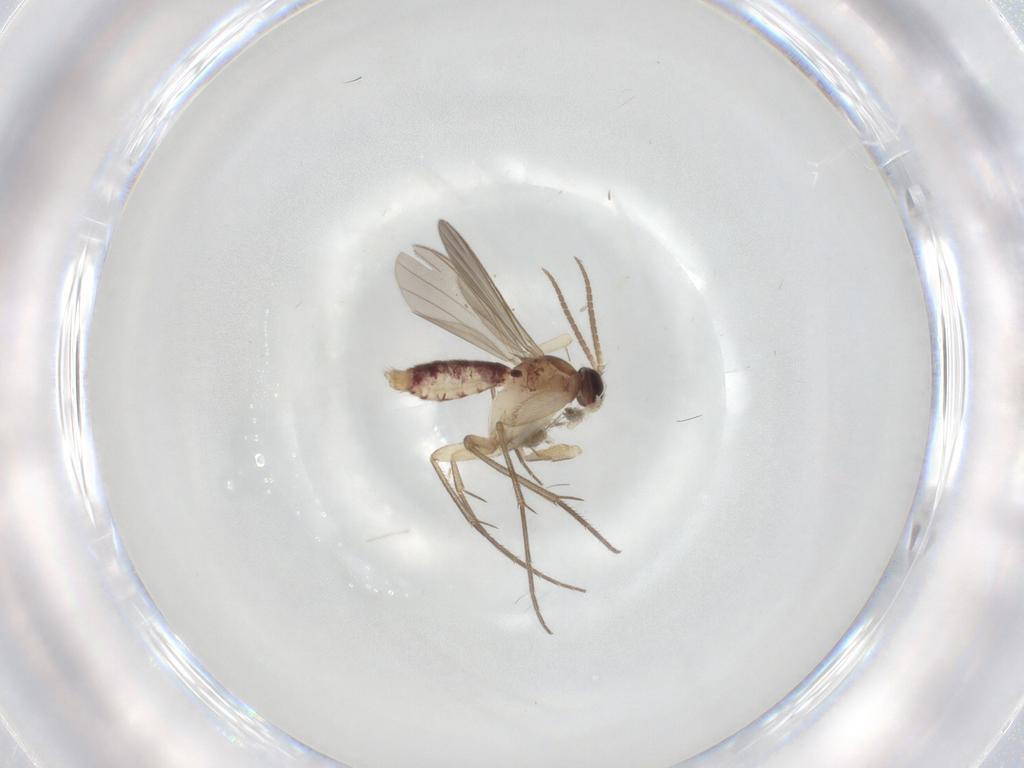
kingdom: Animalia
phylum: Arthropoda
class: Insecta
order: Diptera
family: Mycetophilidae
